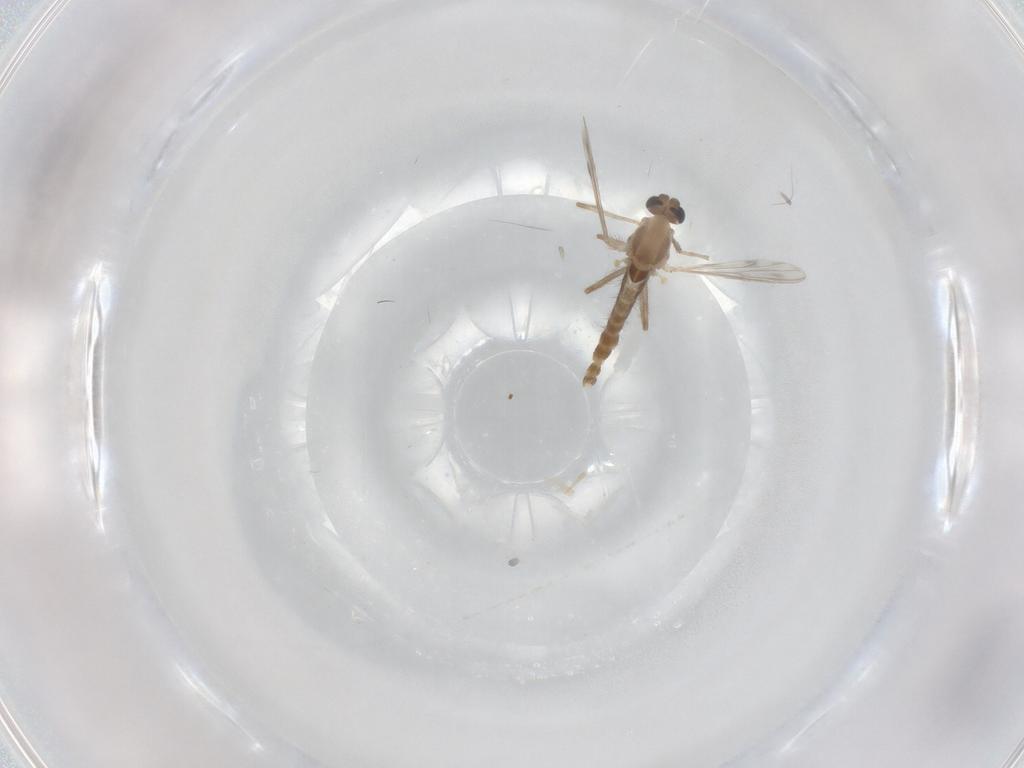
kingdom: Animalia
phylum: Arthropoda
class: Insecta
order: Diptera
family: Chironomidae
